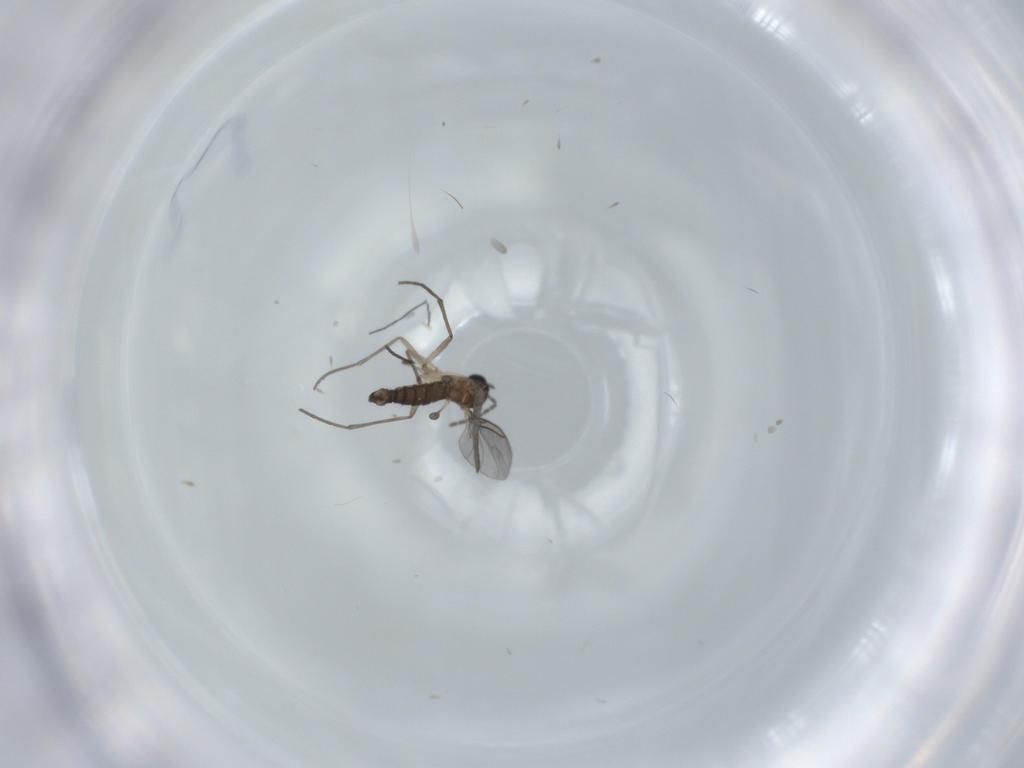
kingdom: Animalia
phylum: Arthropoda
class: Insecta
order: Diptera
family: Sciaridae
